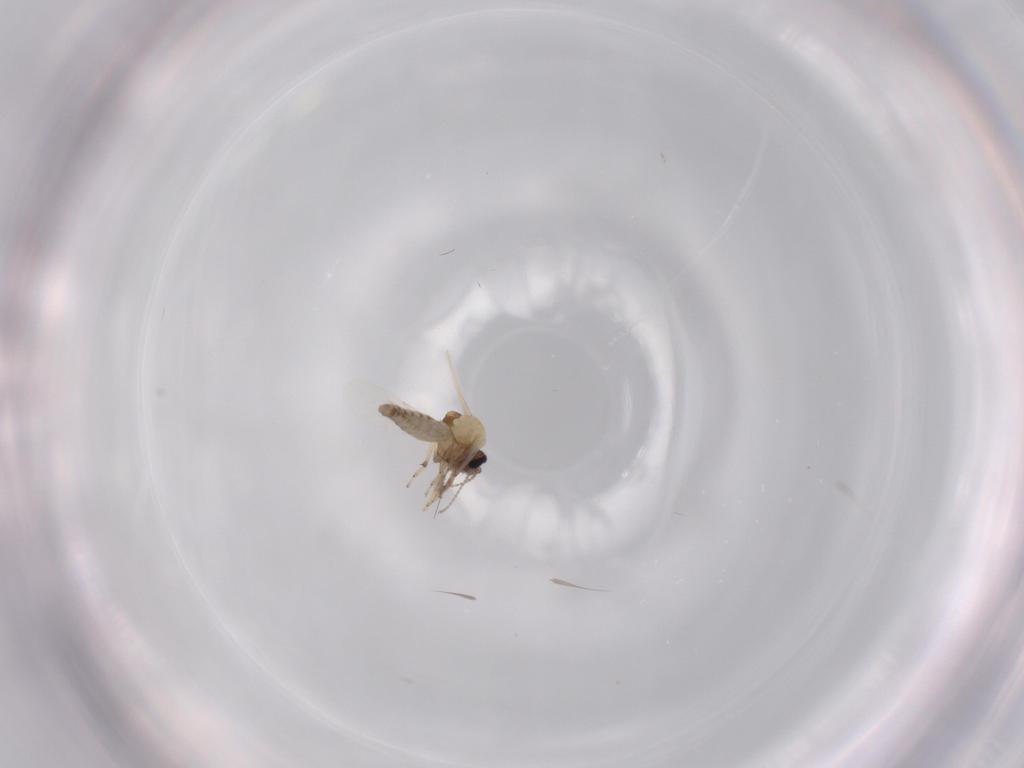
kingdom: Animalia
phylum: Arthropoda
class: Insecta
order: Diptera
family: Ceratopogonidae
